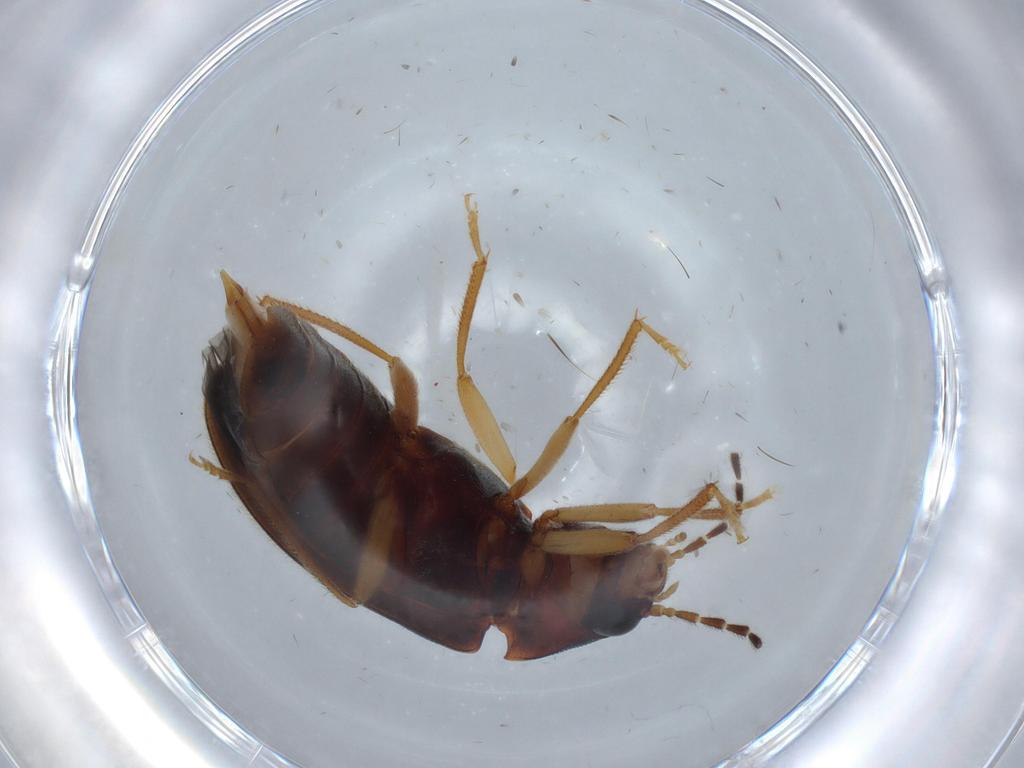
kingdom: Animalia
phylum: Arthropoda
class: Insecta
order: Coleoptera
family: Ptilodactylidae
